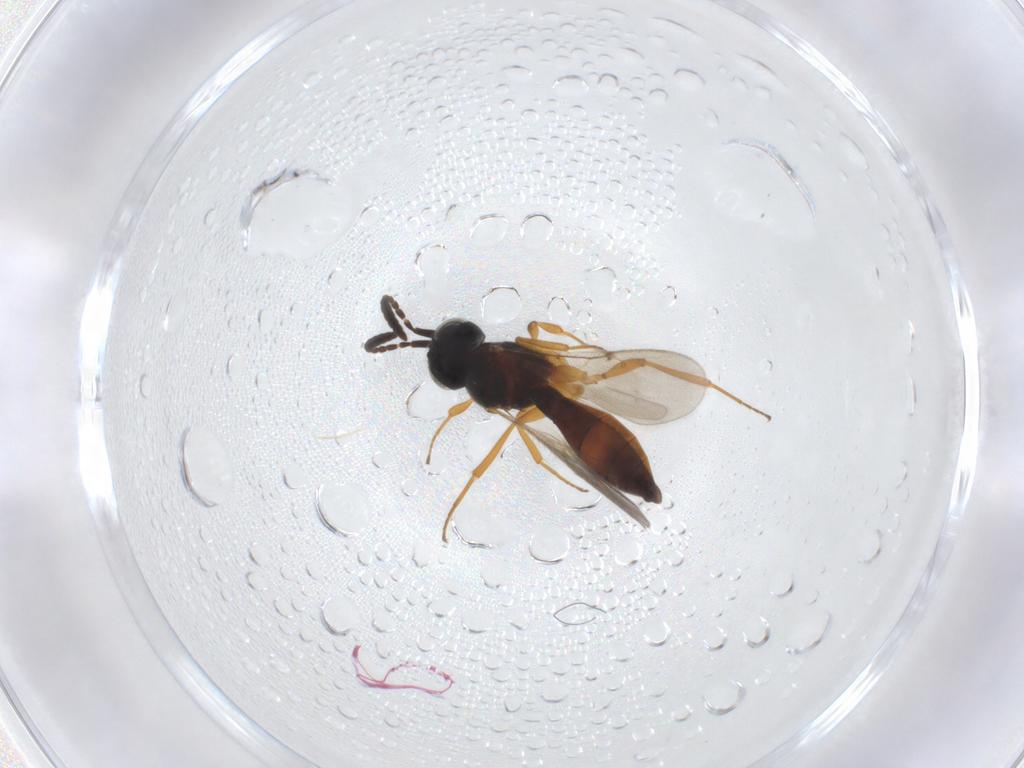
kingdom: Animalia
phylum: Arthropoda
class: Insecta
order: Hymenoptera
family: Scelionidae
